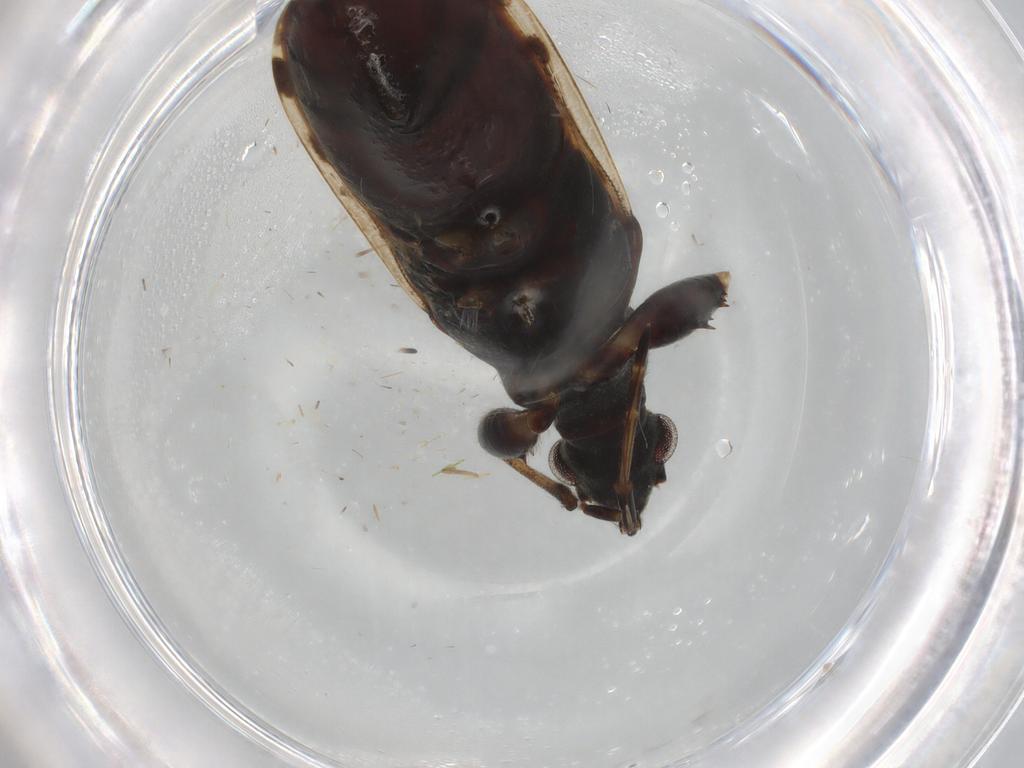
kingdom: Animalia
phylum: Arthropoda
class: Insecta
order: Hemiptera
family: Rhyparochromidae
